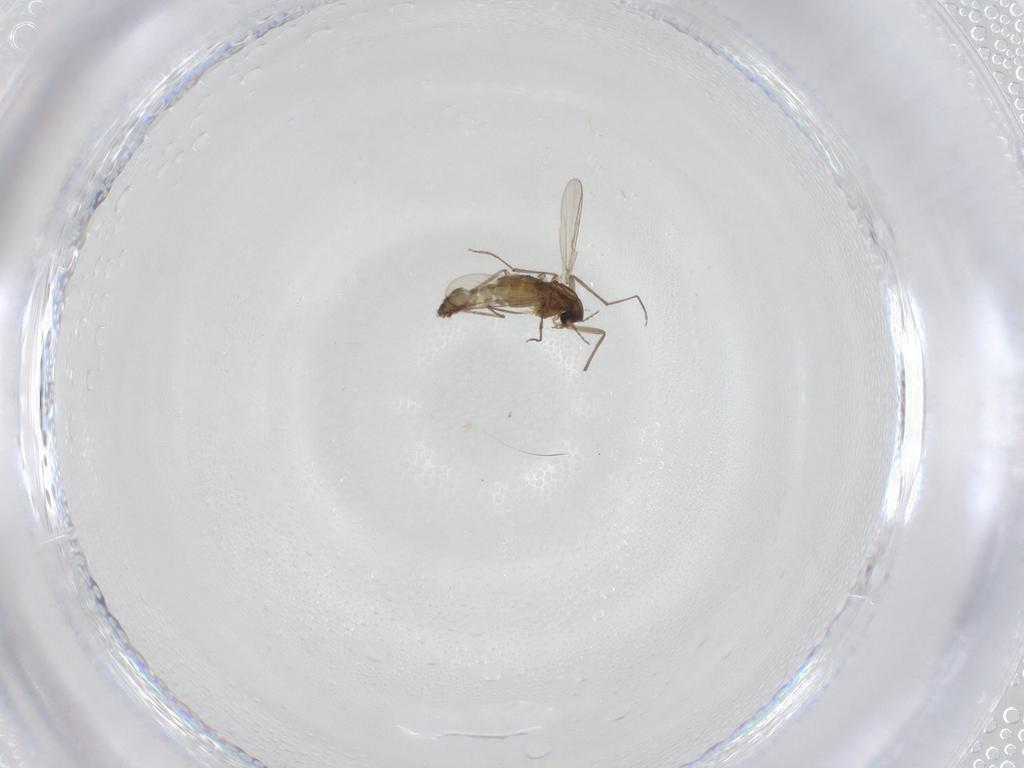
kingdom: Animalia
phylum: Arthropoda
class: Insecta
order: Diptera
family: Chironomidae
